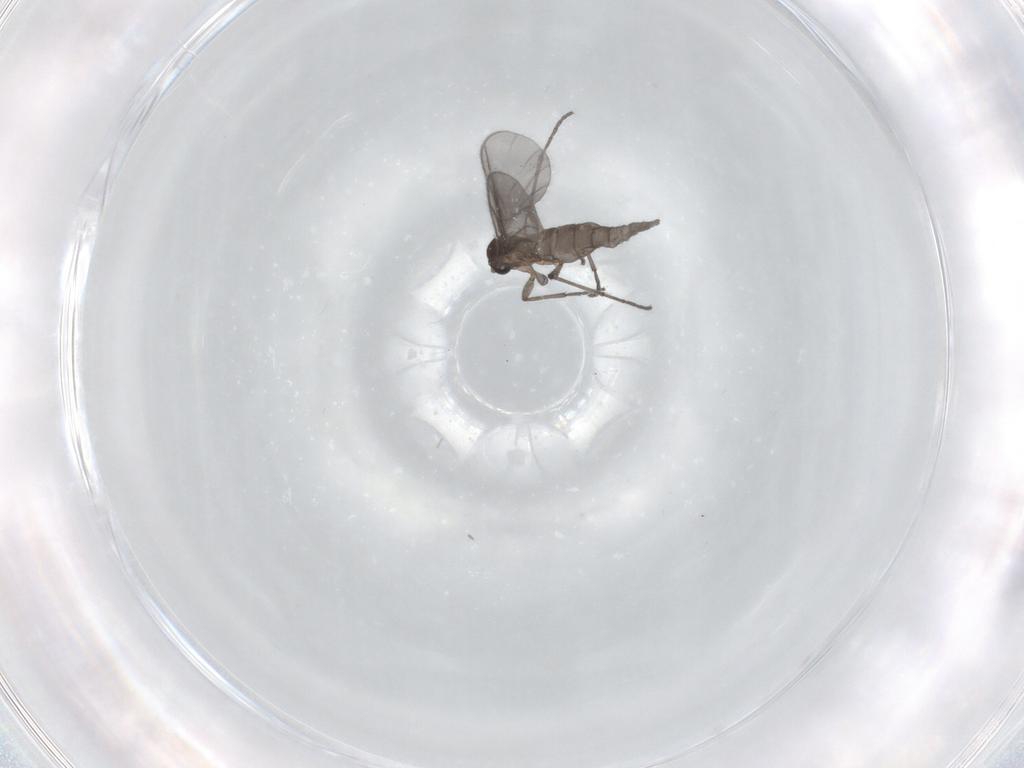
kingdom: Animalia
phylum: Arthropoda
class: Insecta
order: Diptera
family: Sciaridae
